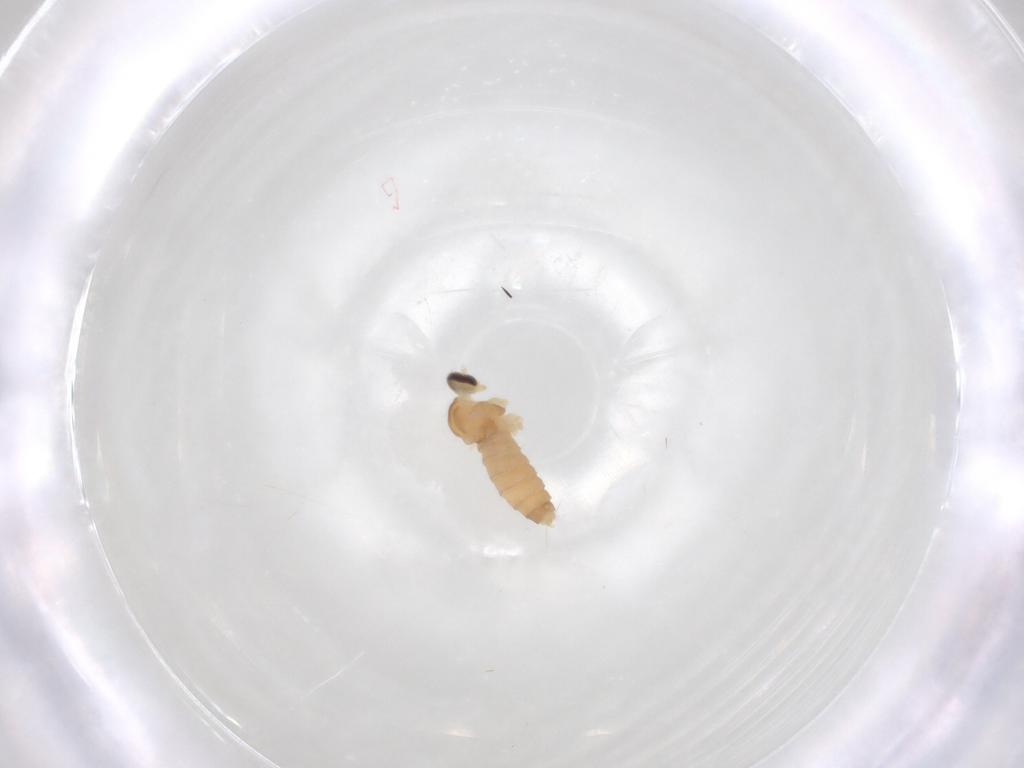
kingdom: Animalia
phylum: Arthropoda
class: Insecta
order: Diptera
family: Cecidomyiidae
